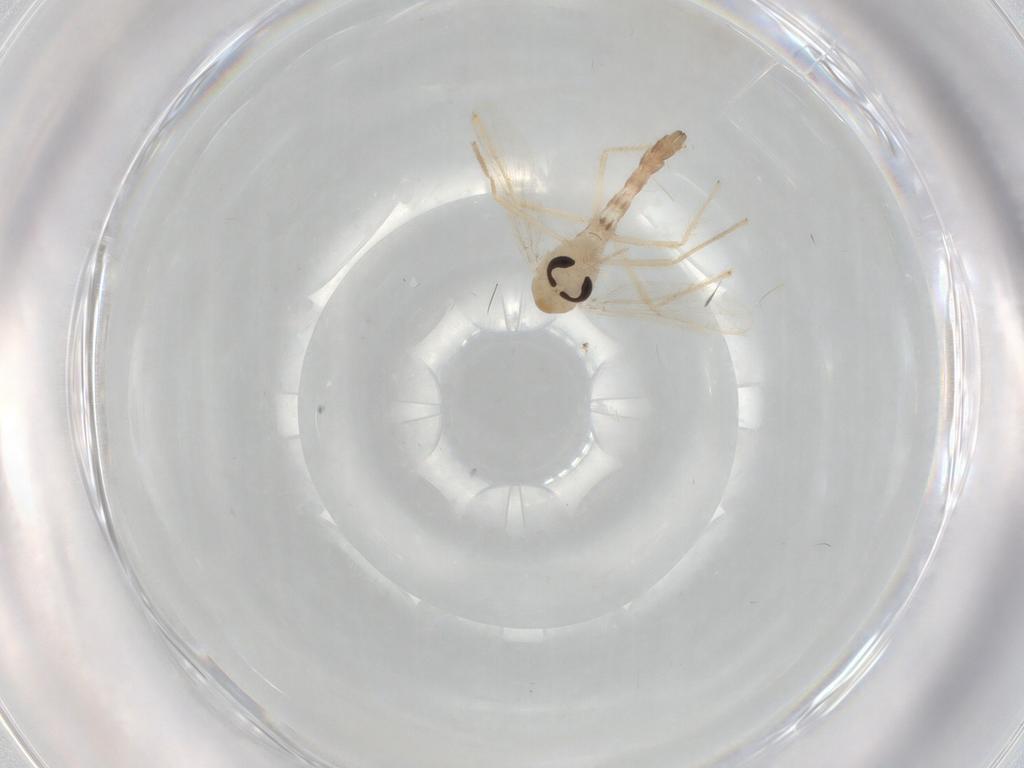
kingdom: Animalia
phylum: Arthropoda
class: Insecta
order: Diptera
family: Chironomidae
